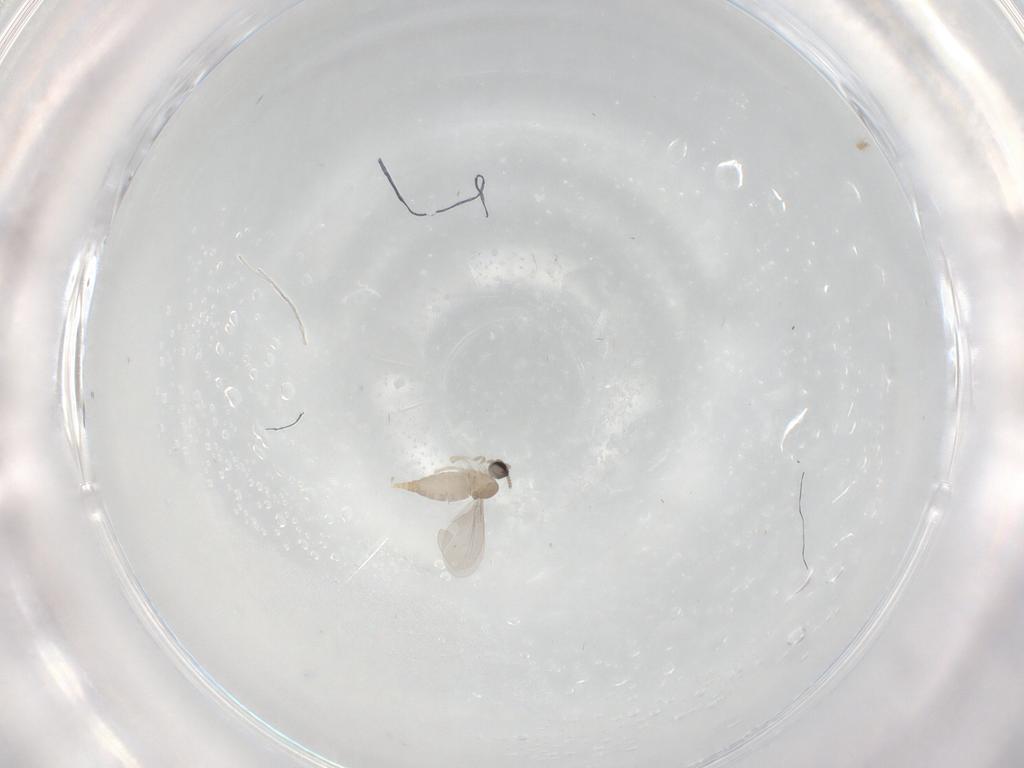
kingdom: Animalia
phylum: Arthropoda
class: Insecta
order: Diptera
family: Cecidomyiidae
